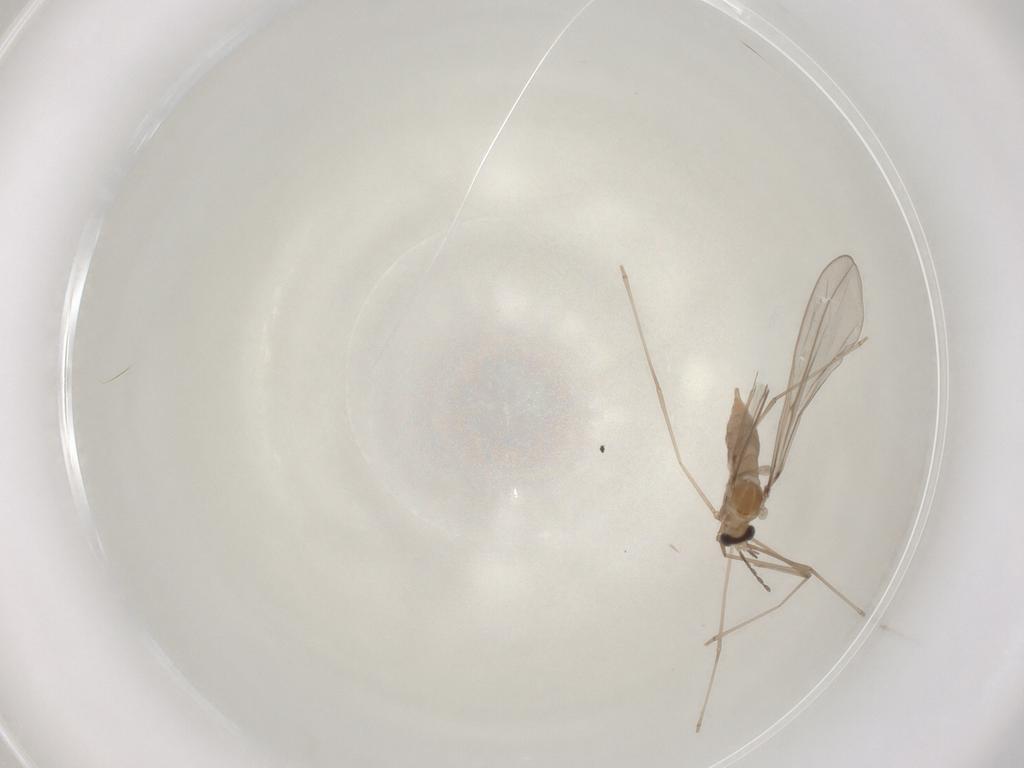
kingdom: Animalia
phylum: Arthropoda
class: Insecta
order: Diptera
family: Cecidomyiidae
